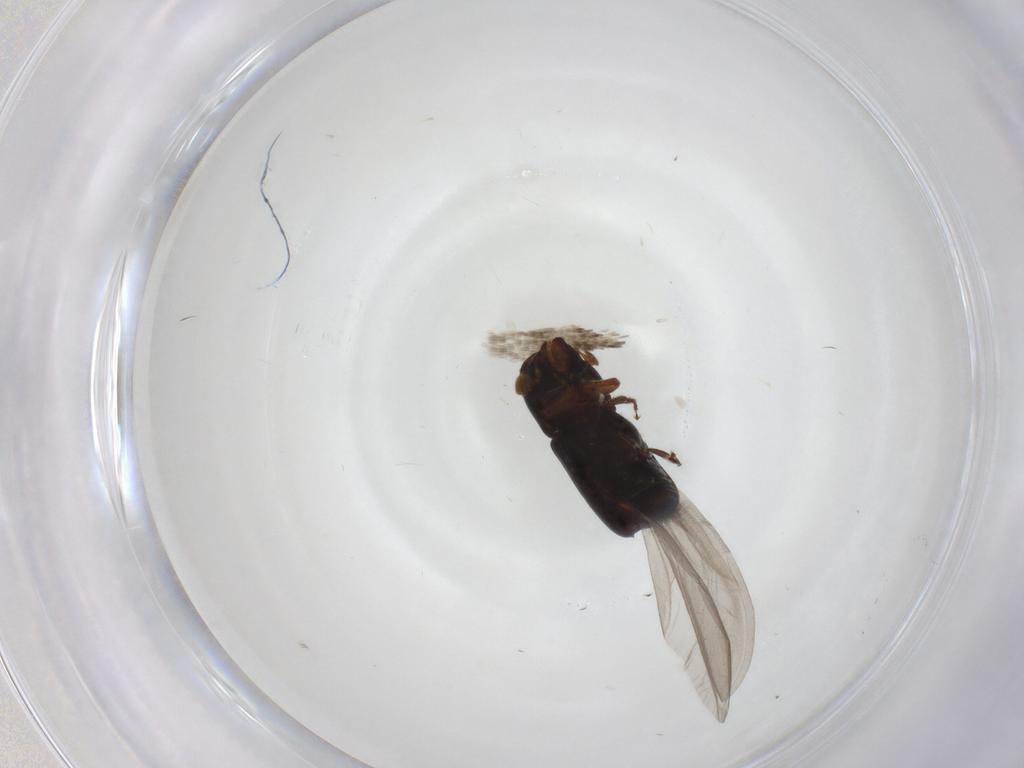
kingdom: Animalia
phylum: Arthropoda
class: Insecta
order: Coleoptera
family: Curculionidae
